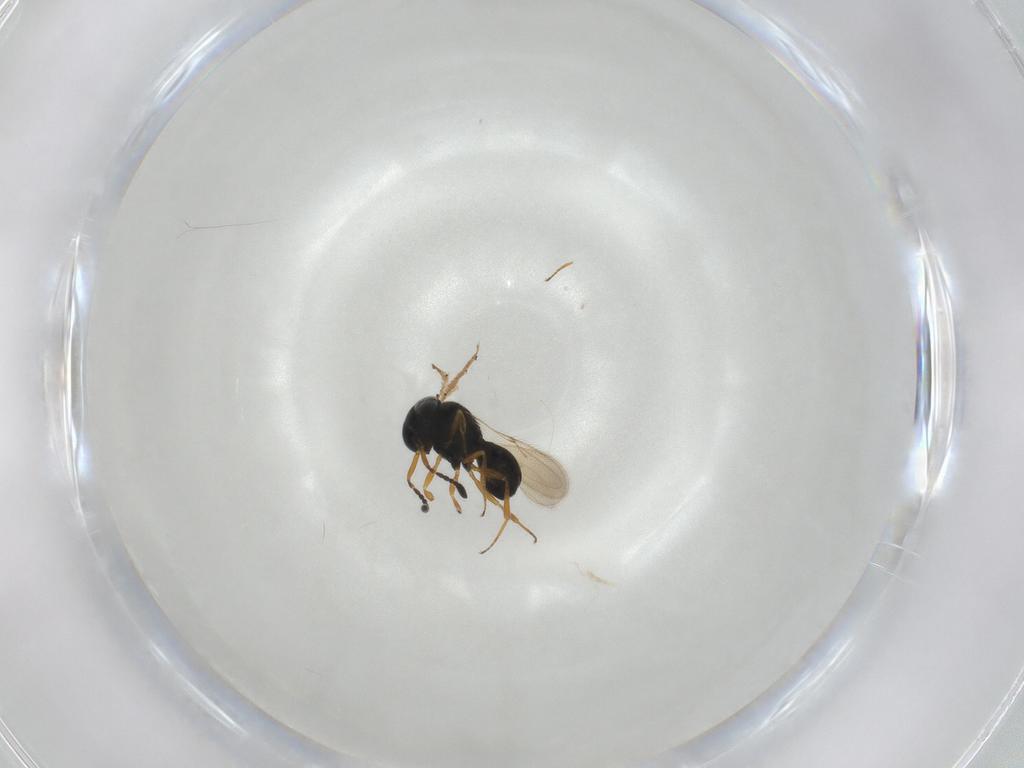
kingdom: Animalia
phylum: Arthropoda
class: Insecta
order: Hymenoptera
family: Scelionidae
